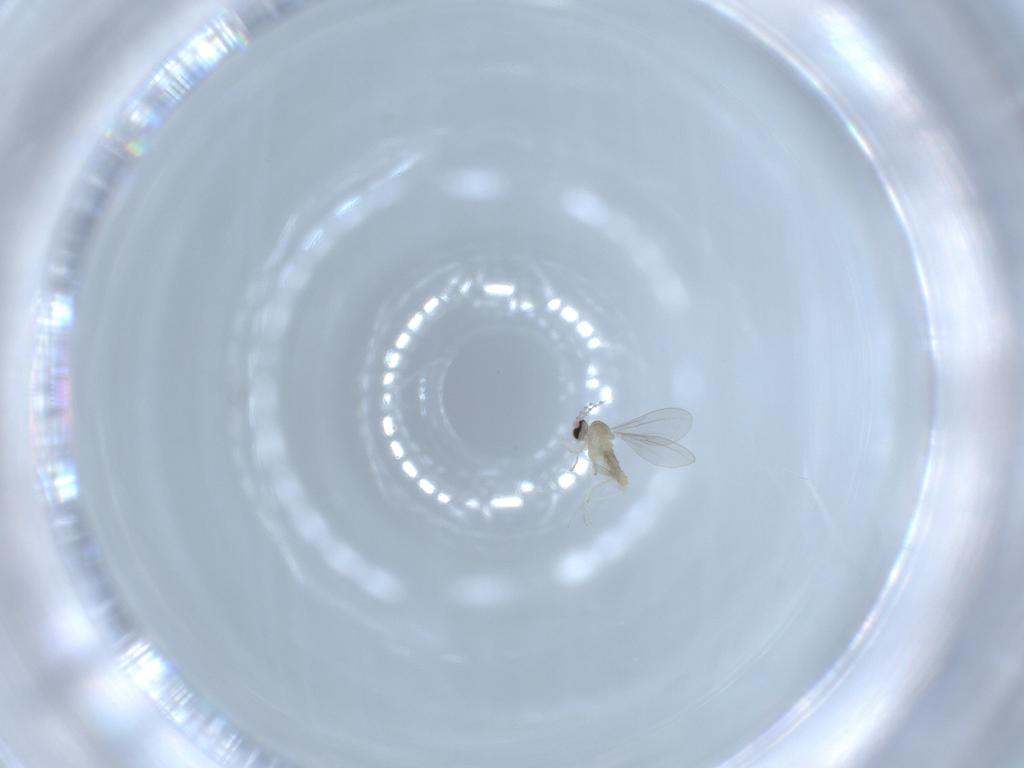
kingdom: Animalia
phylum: Arthropoda
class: Insecta
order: Diptera
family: Cecidomyiidae
